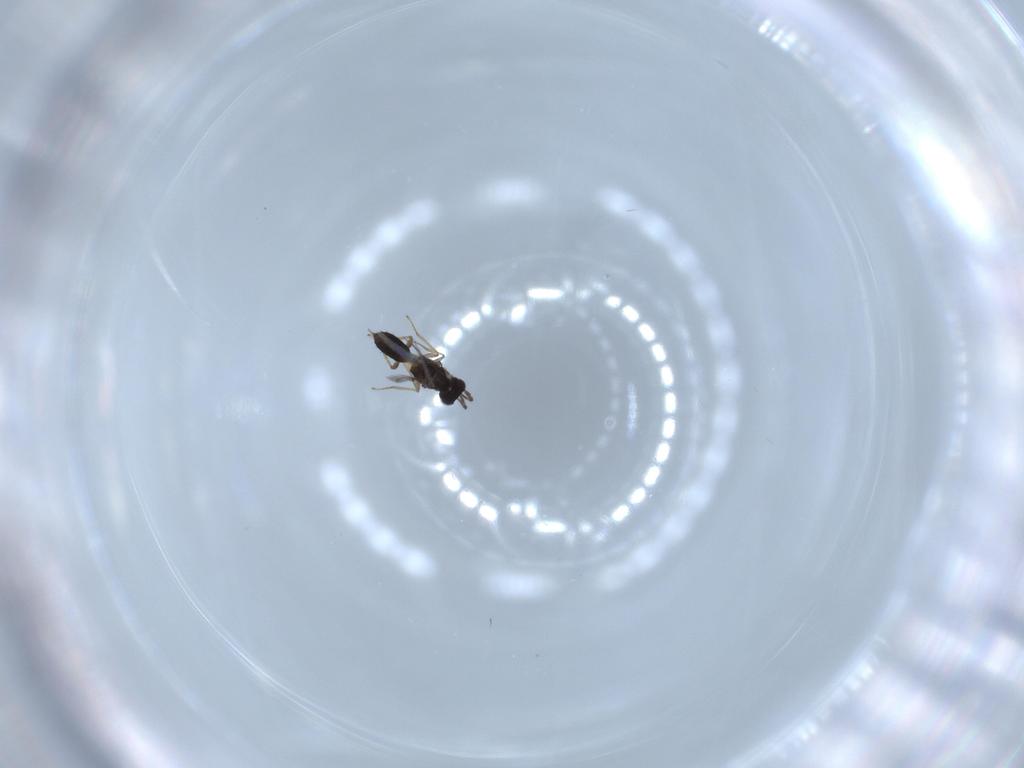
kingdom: Animalia
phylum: Arthropoda
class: Insecta
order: Hymenoptera
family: Eulophidae
